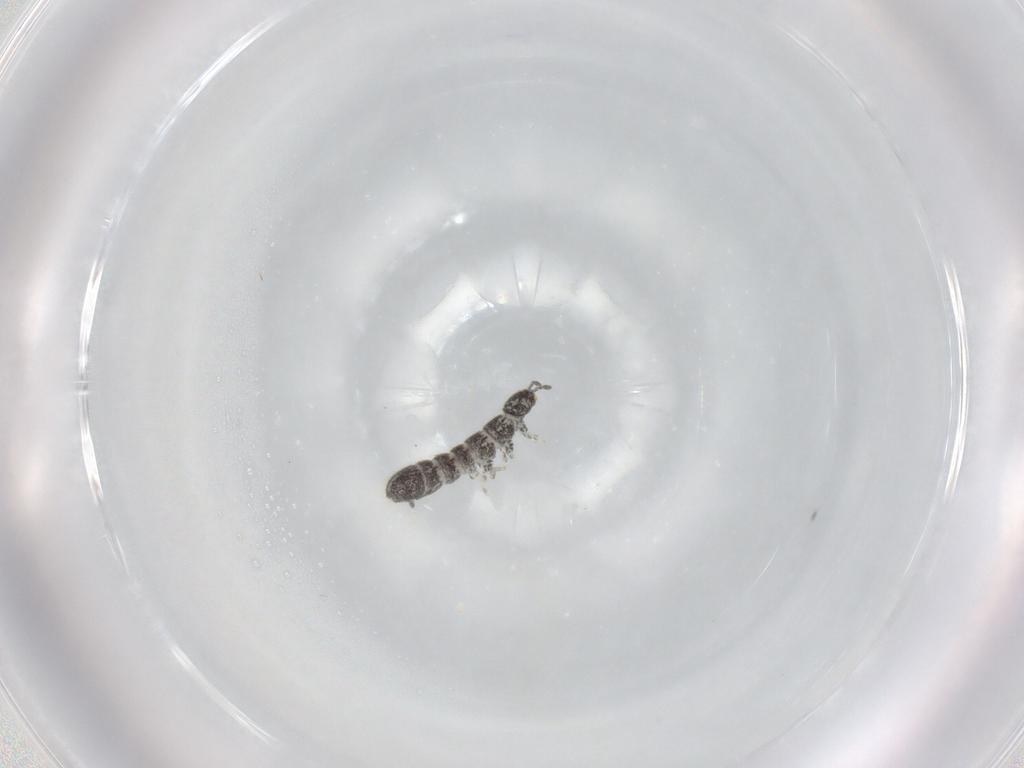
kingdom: Animalia
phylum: Arthropoda
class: Collembola
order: Entomobryomorpha
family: Isotomidae
